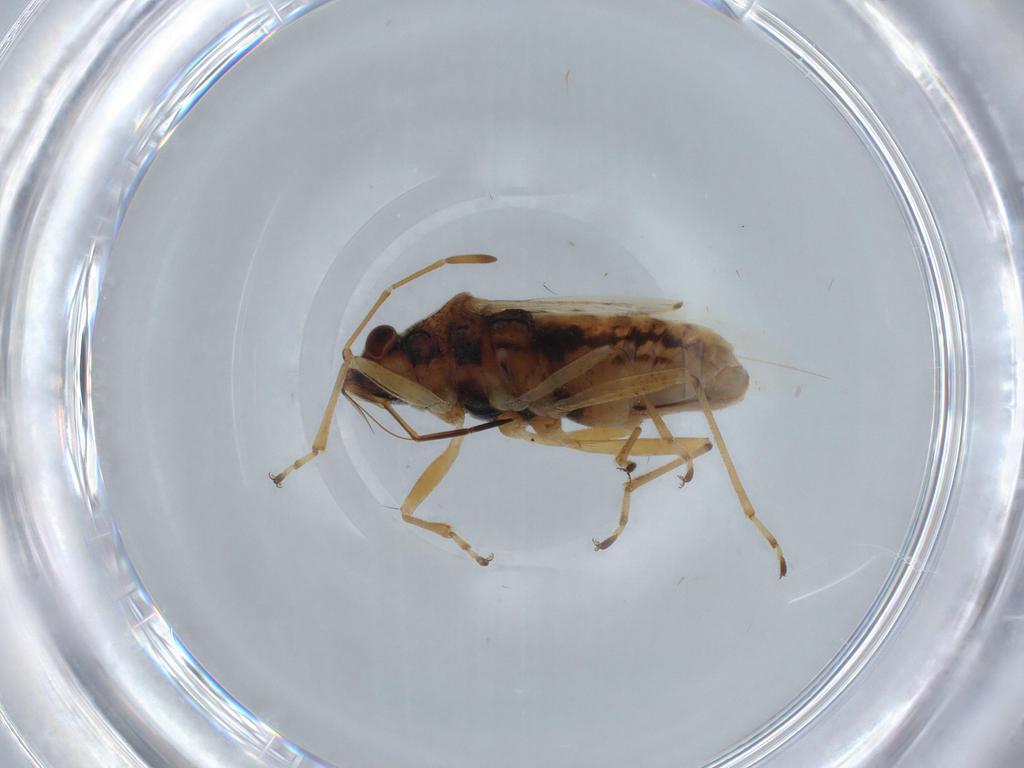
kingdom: Animalia
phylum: Arthropoda
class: Insecta
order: Hemiptera
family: Lygaeidae
